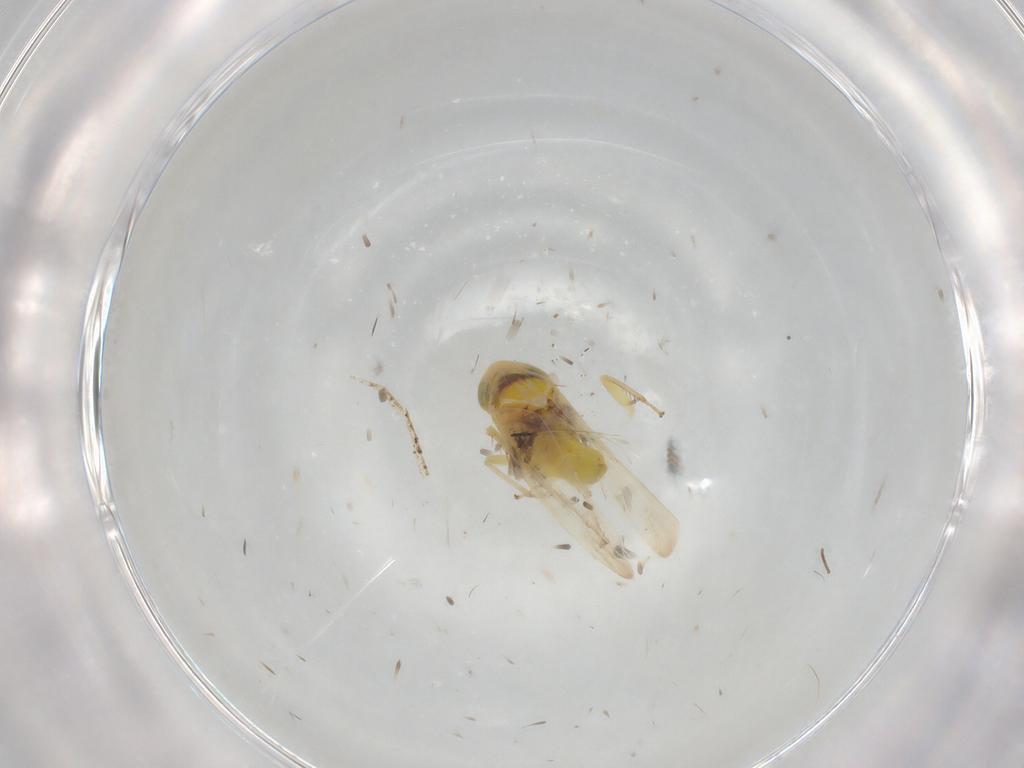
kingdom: Animalia
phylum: Arthropoda
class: Insecta
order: Hemiptera
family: Cicadellidae
